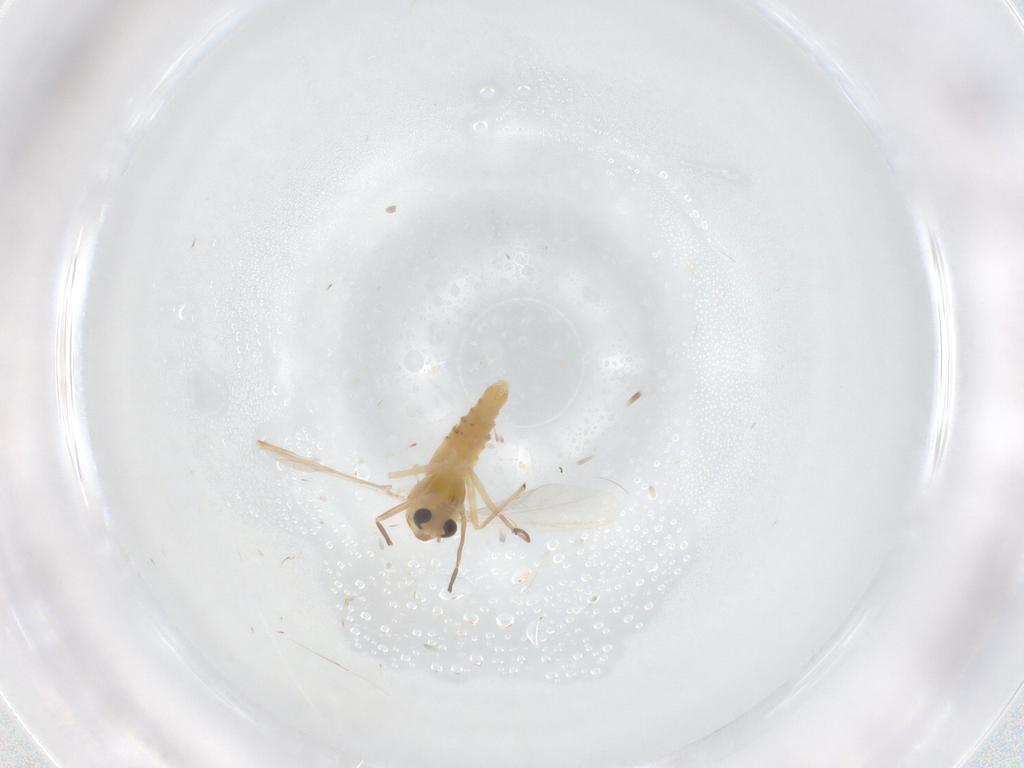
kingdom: Animalia
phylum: Arthropoda
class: Insecta
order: Diptera
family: Chironomidae
